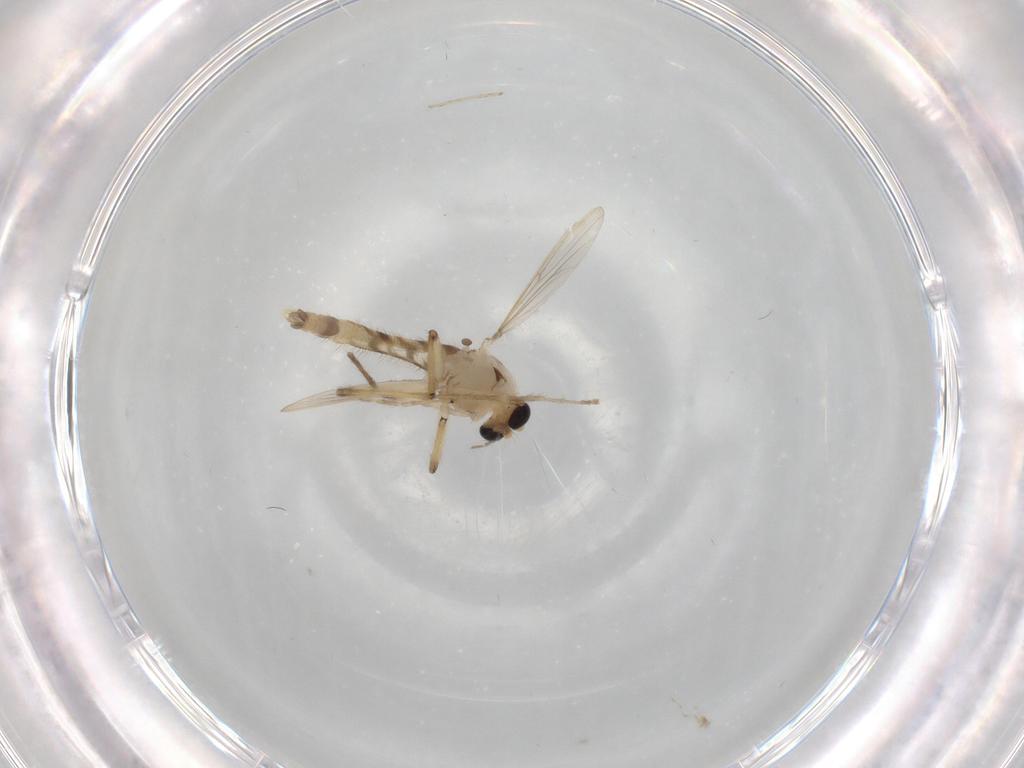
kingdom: Animalia
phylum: Arthropoda
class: Insecta
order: Diptera
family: Chironomidae
